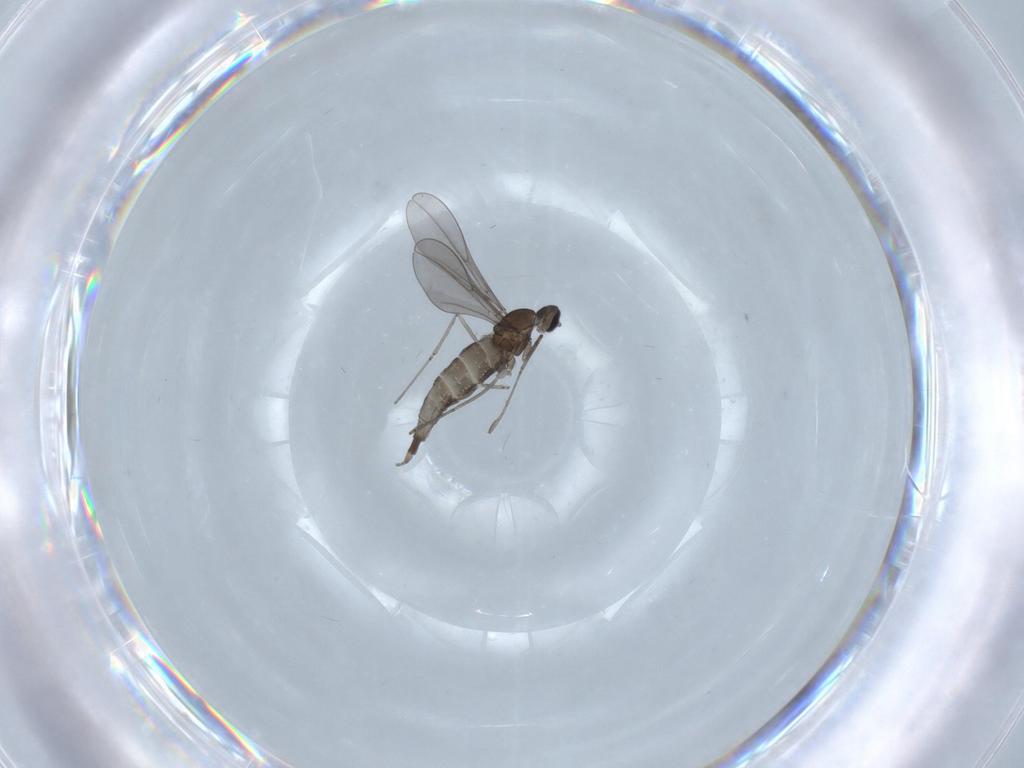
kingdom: Animalia
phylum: Arthropoda
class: Insecta
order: Diptera
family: Cecidomyiidae
